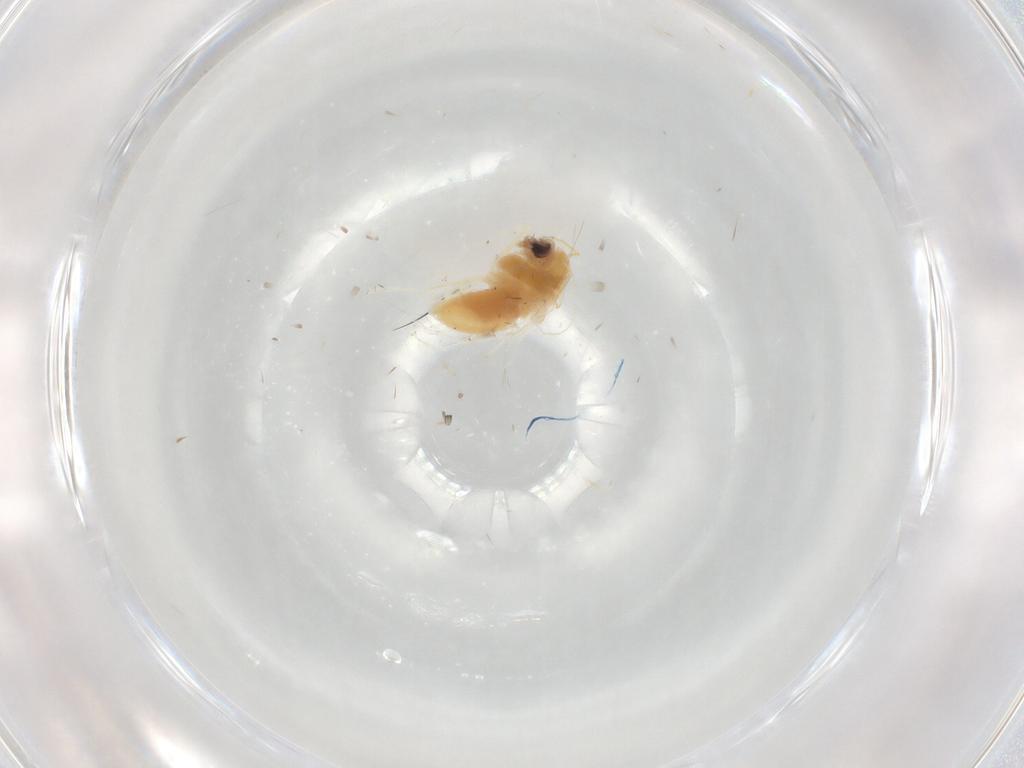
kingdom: Animalia
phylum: Arthropoda
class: Insecta
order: Diptera
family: Chironomidae
